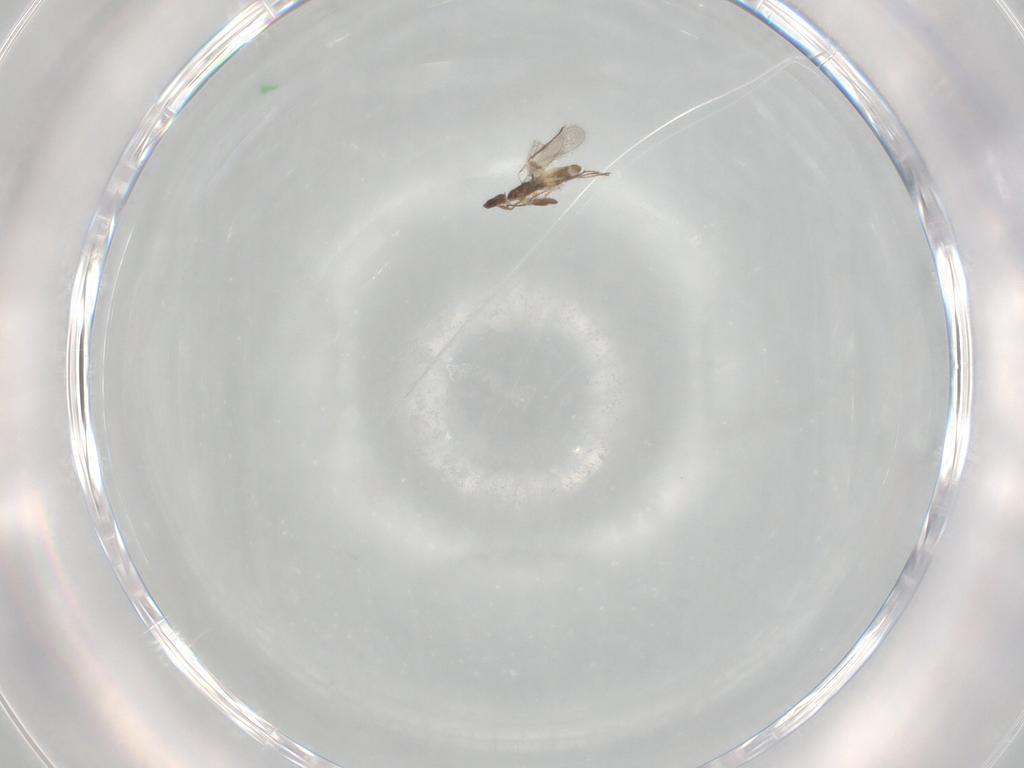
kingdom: Animalia
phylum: Arthropoda
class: Insecta
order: Hymenoptera
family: Mymaridae
